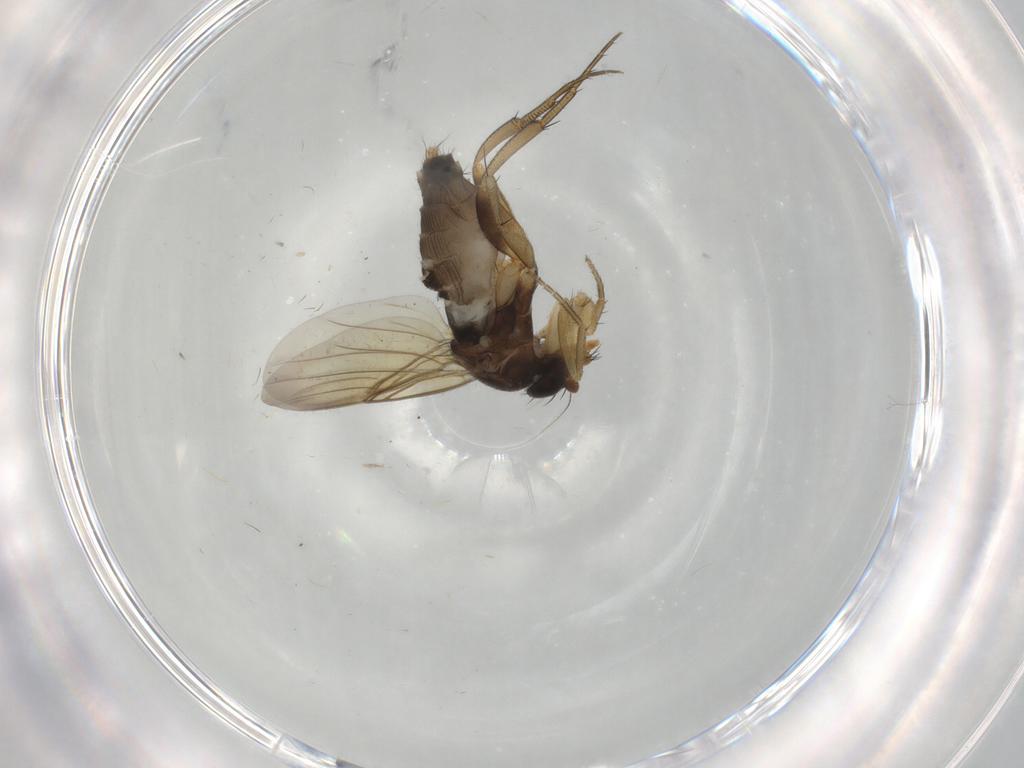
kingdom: Animalia
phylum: Arthropoda
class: Insecta
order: Diptera
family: Phoridae
